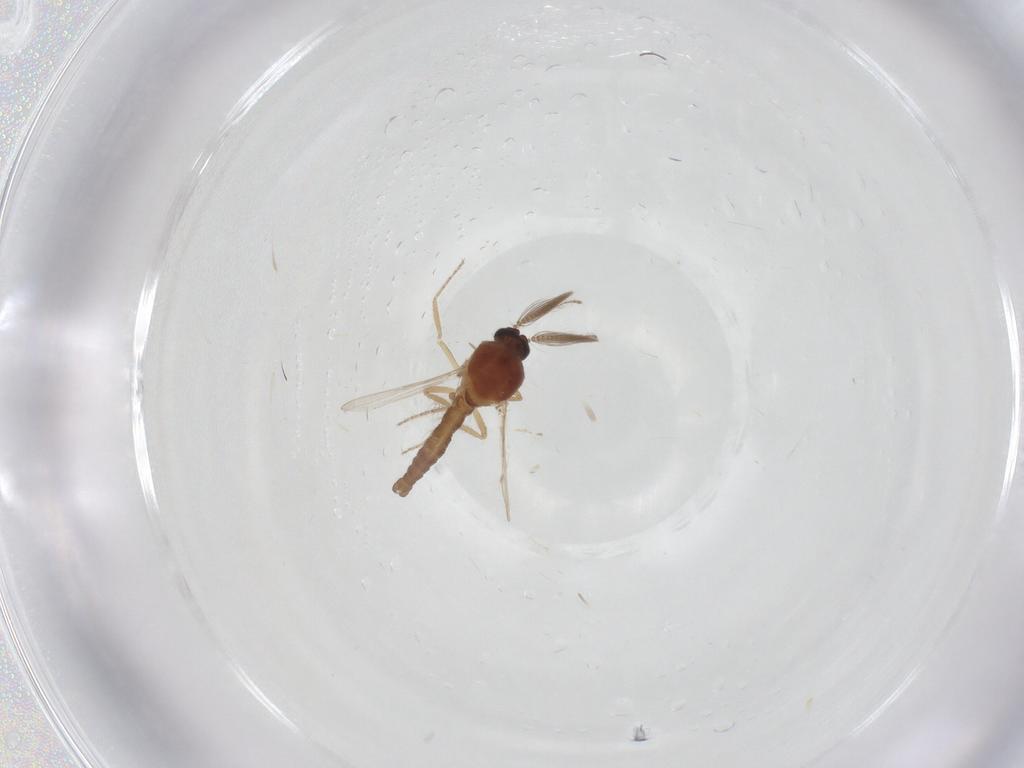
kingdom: Animalia
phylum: Arthropoda
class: Insecta
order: Diptera
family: Ceratopogonidae
